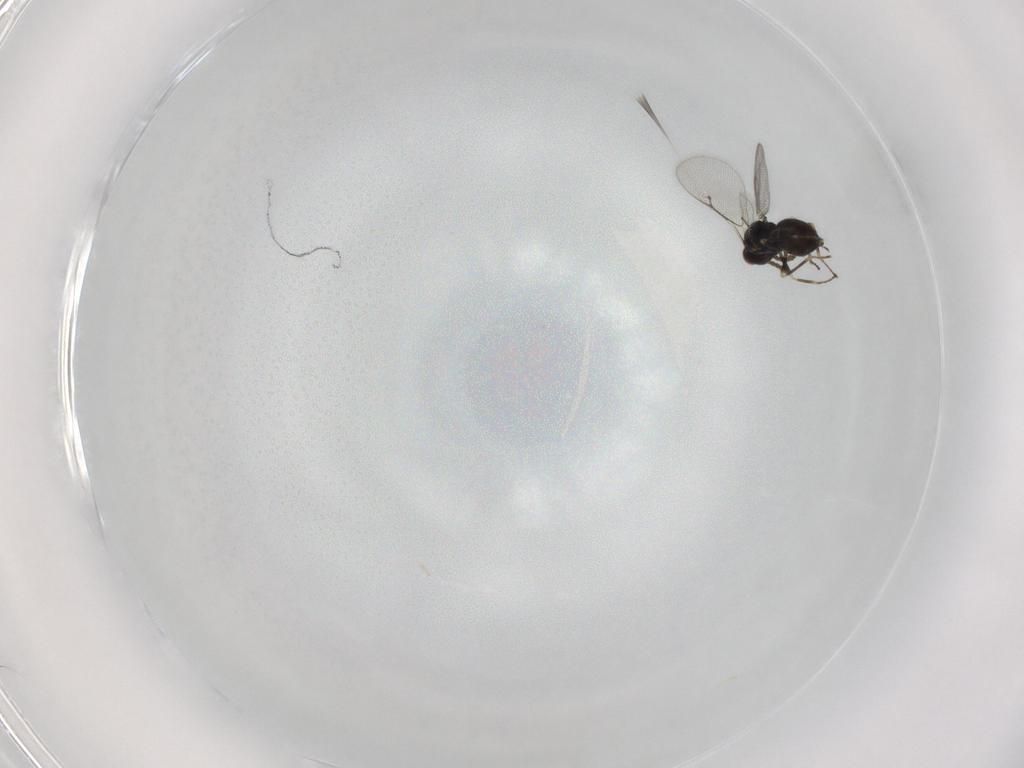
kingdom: Animalia
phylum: Arthropoda
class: Insecta
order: Hymenoptera
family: Eulophidae
